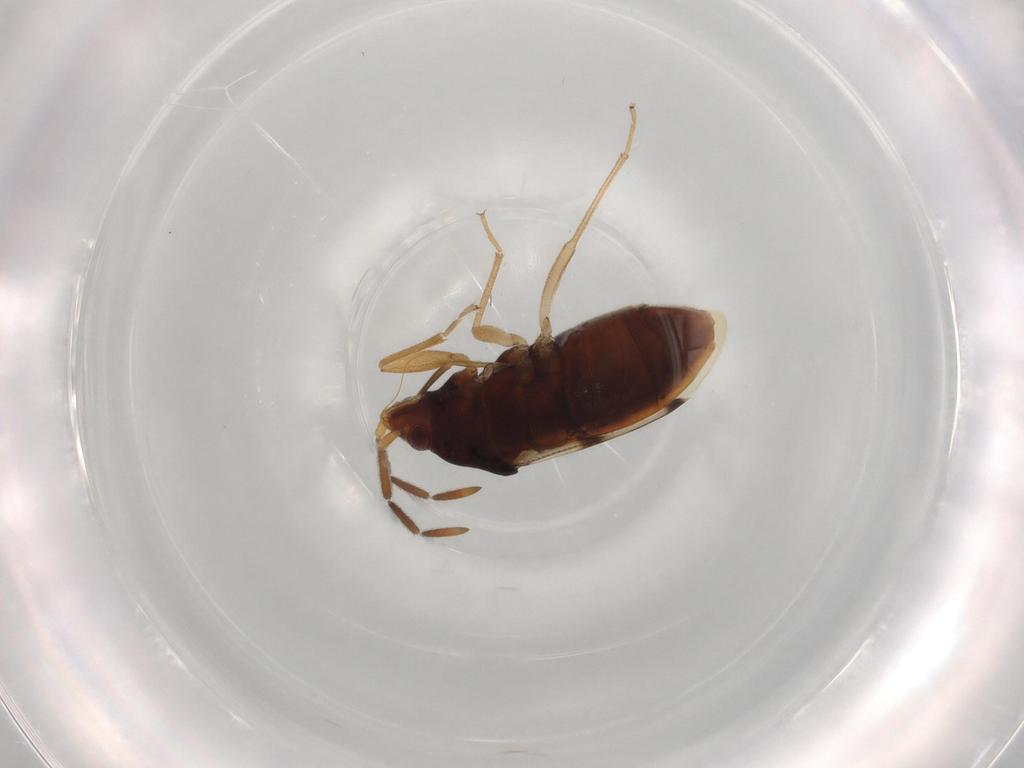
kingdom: Animalia
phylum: Arthropoda
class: Insecta
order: Hemiptera
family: Rhyparochromidae
